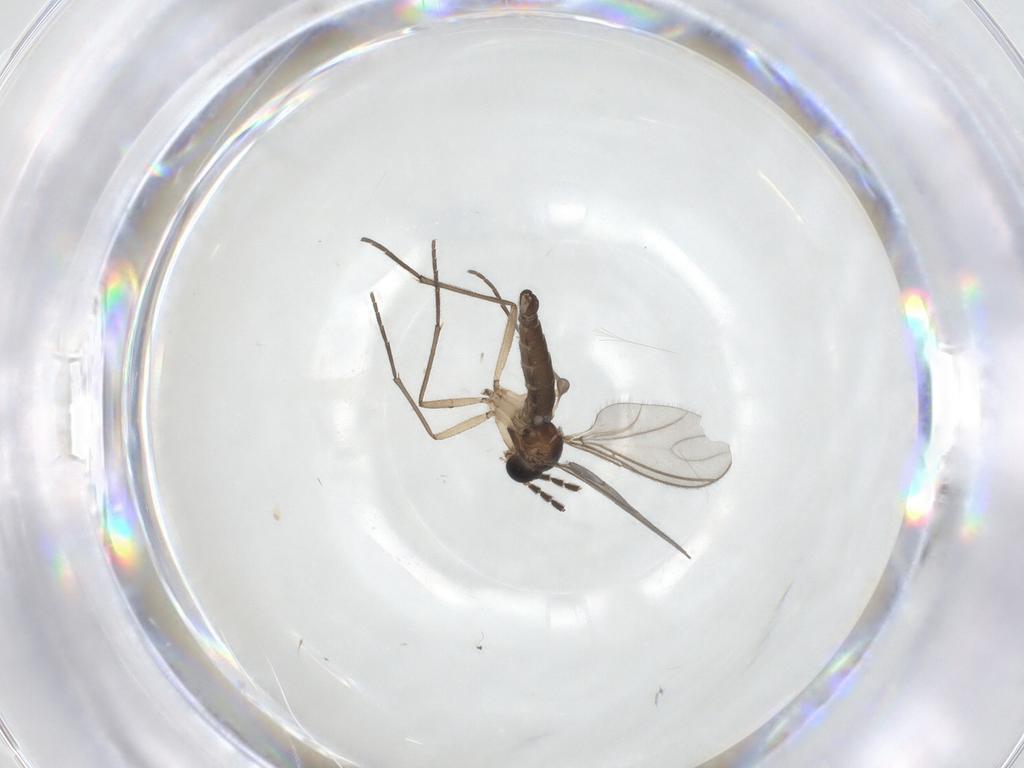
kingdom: Animalia
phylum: Arthropoda
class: Insecta
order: Diptera
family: Sciaridae
